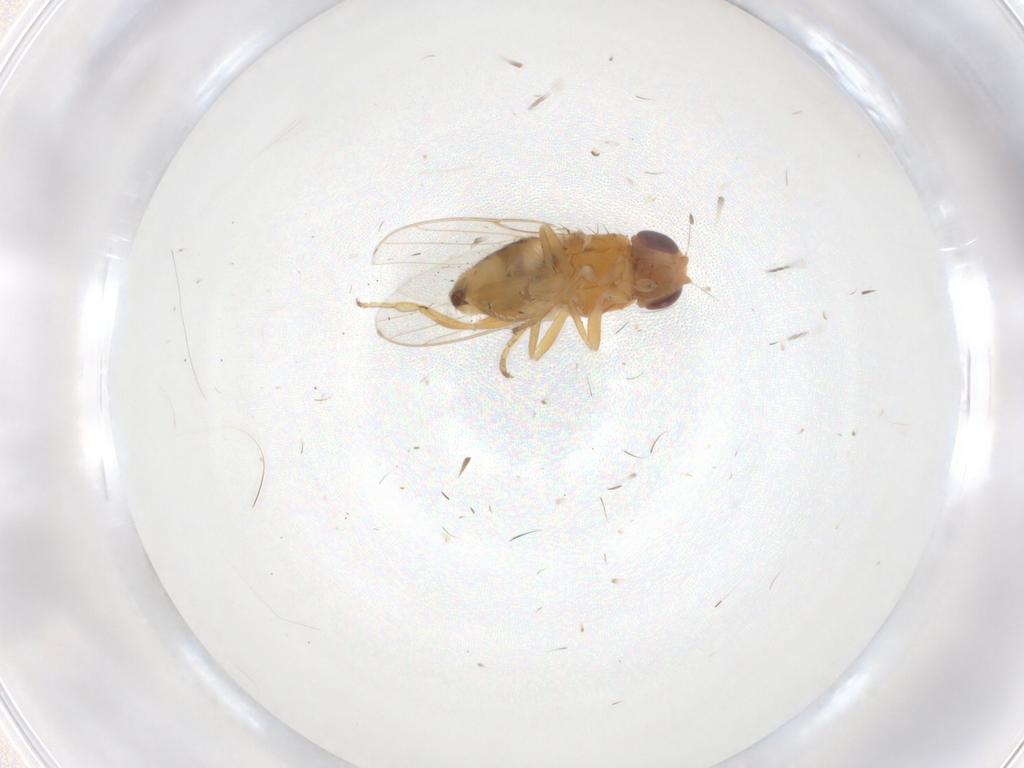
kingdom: Animalia
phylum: Arthropoda
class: Insecta
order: Diptera
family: Chloropidae
